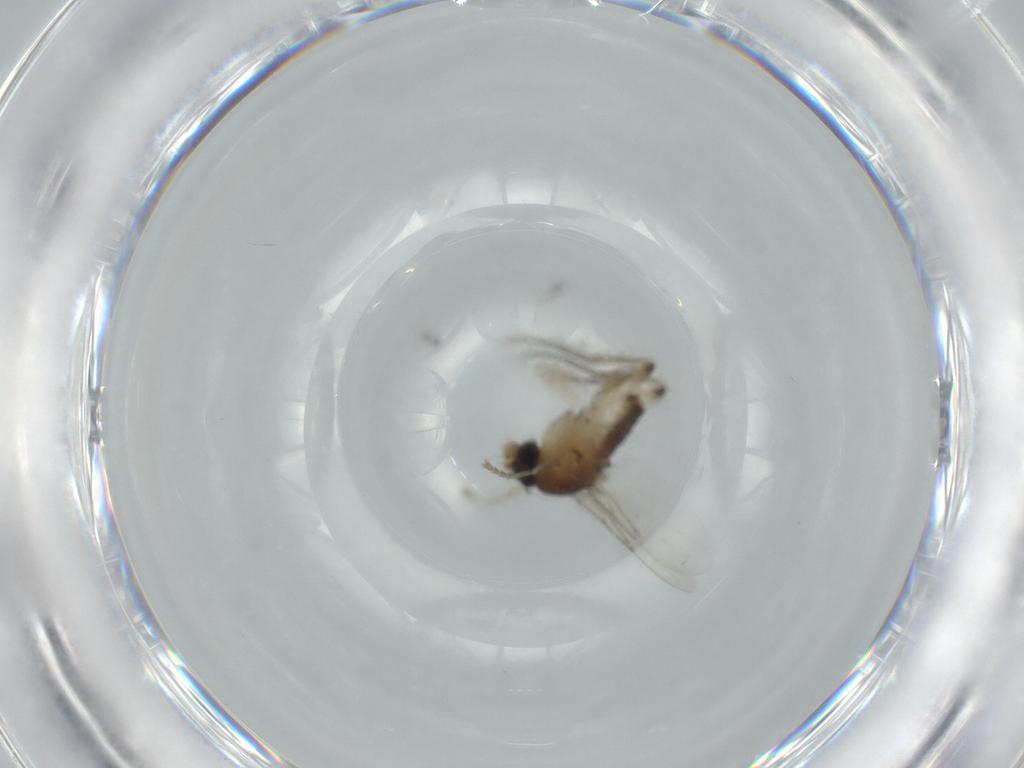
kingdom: Animalia
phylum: Arthropoda
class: Insecta
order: Diptera
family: Phoridae
